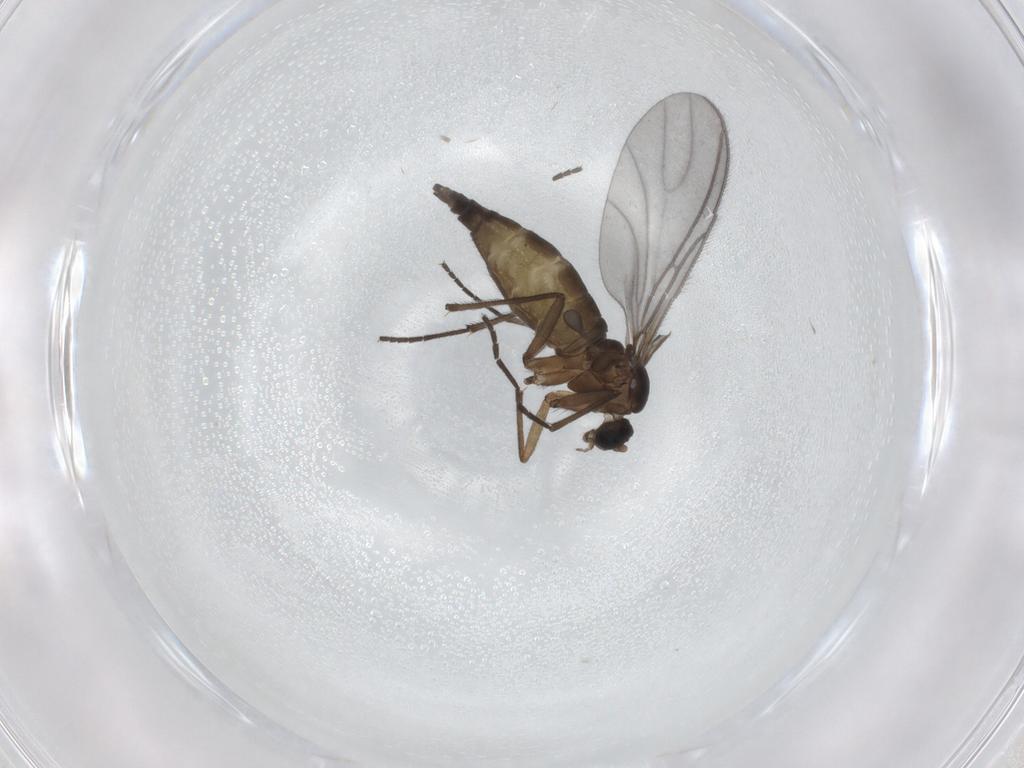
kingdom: Animalia
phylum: Arthropoda
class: Insecta
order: Diptera
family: Sciaridae
